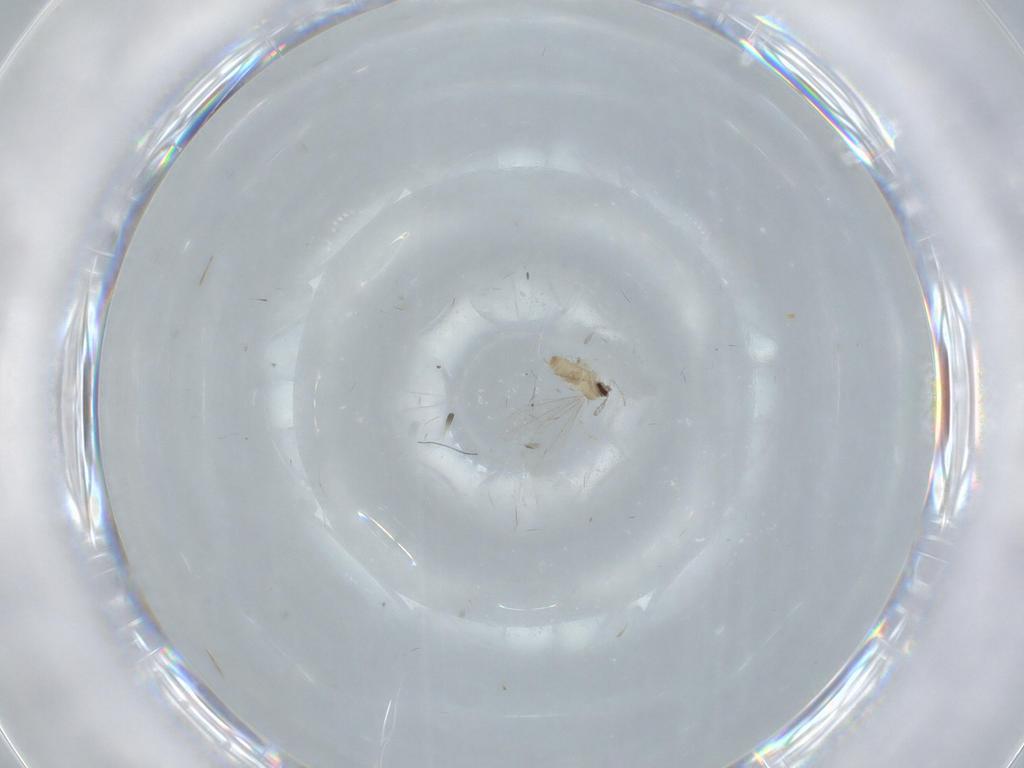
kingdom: Animalia
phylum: Arthropoda
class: Insecta
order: Diptera
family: Cecidomyiidae
